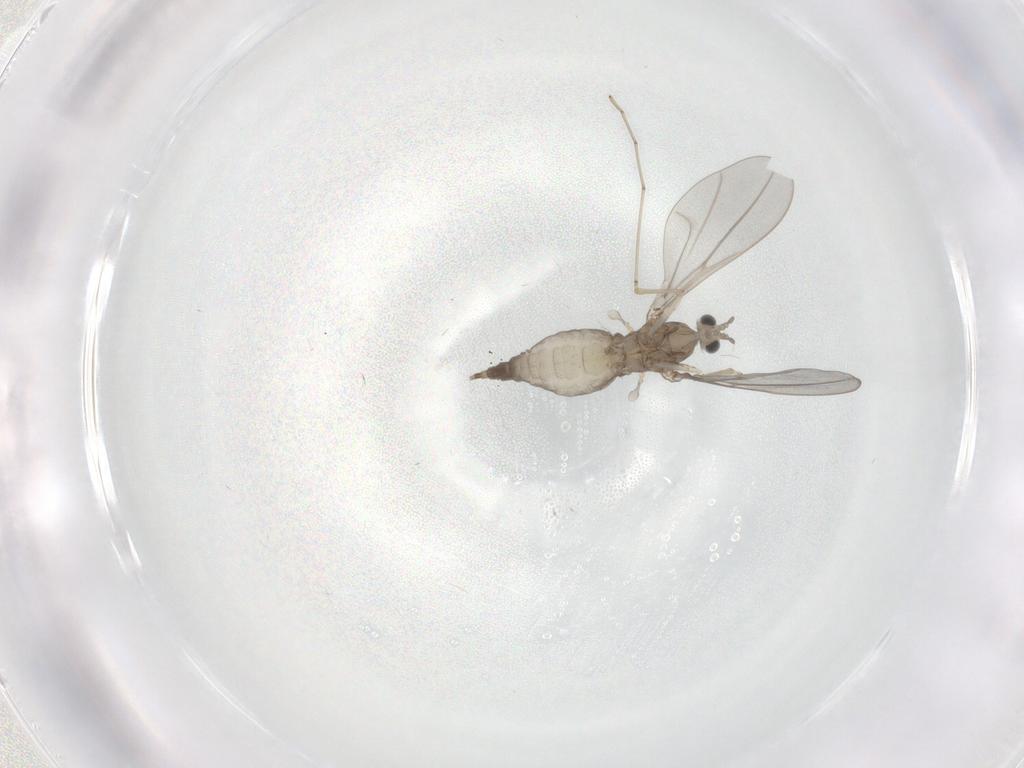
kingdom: Animalia
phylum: Arthropoda
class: Insecta
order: Diptera
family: Cecidomyiidae
